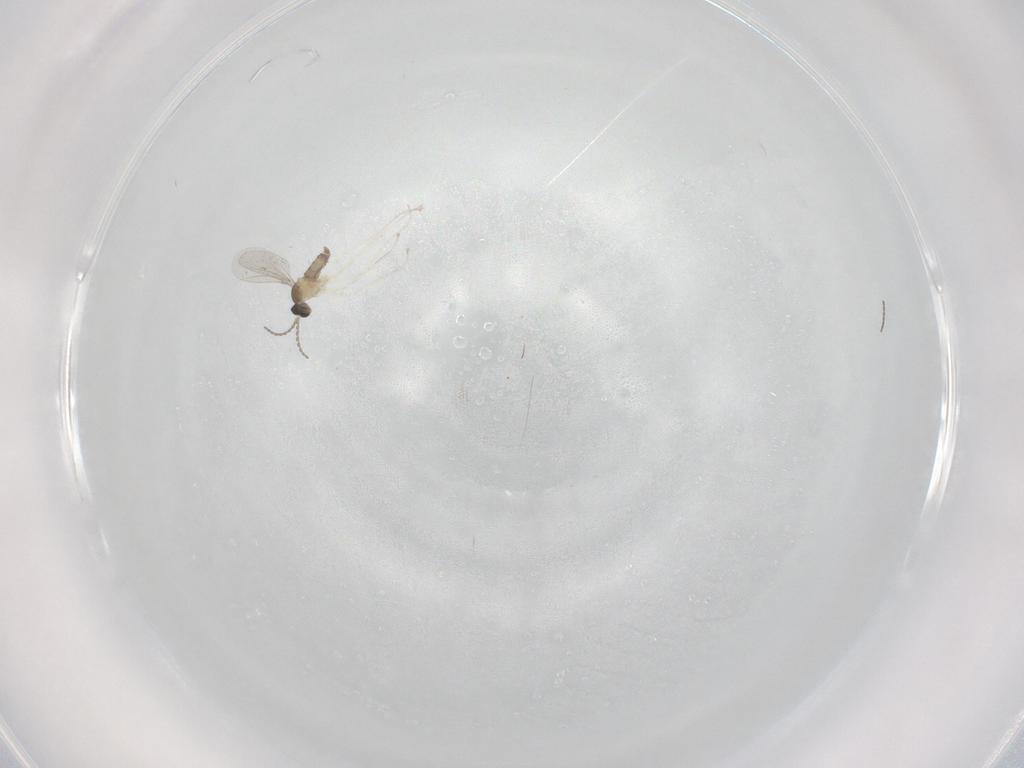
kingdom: Animalia
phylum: Arthropoda
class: Insecta
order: Diptera
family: Cecidomyiidae
